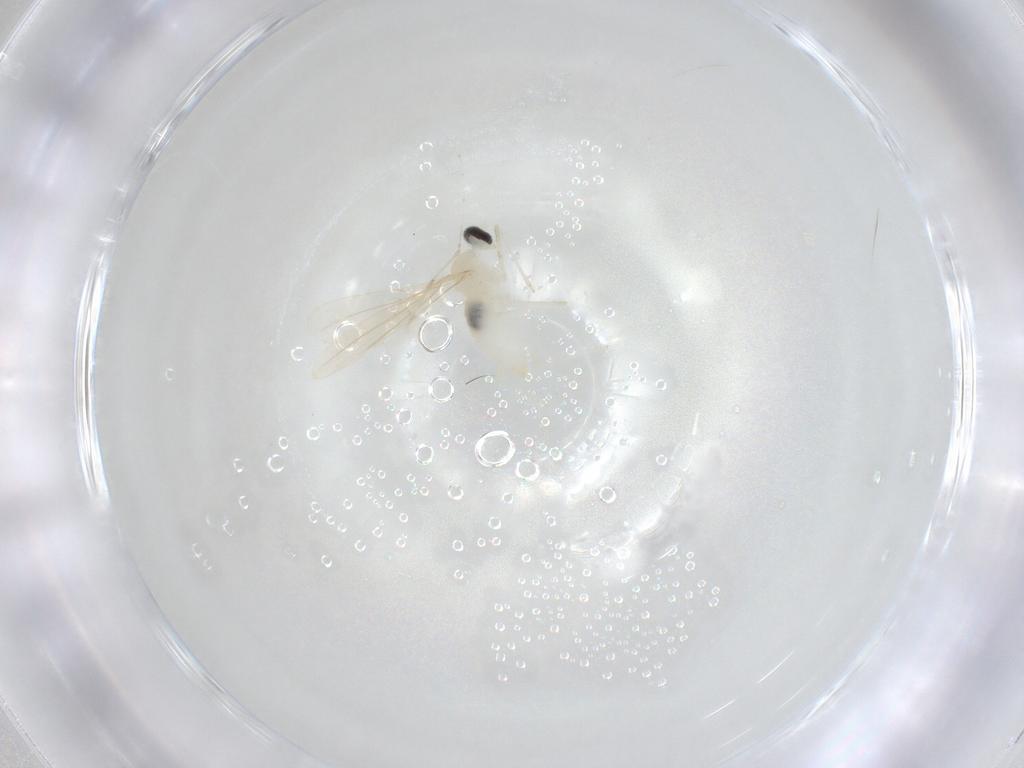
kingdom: Animalia
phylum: Arthropoda
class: Insecta
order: Diptera
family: Cecidomyiidae
